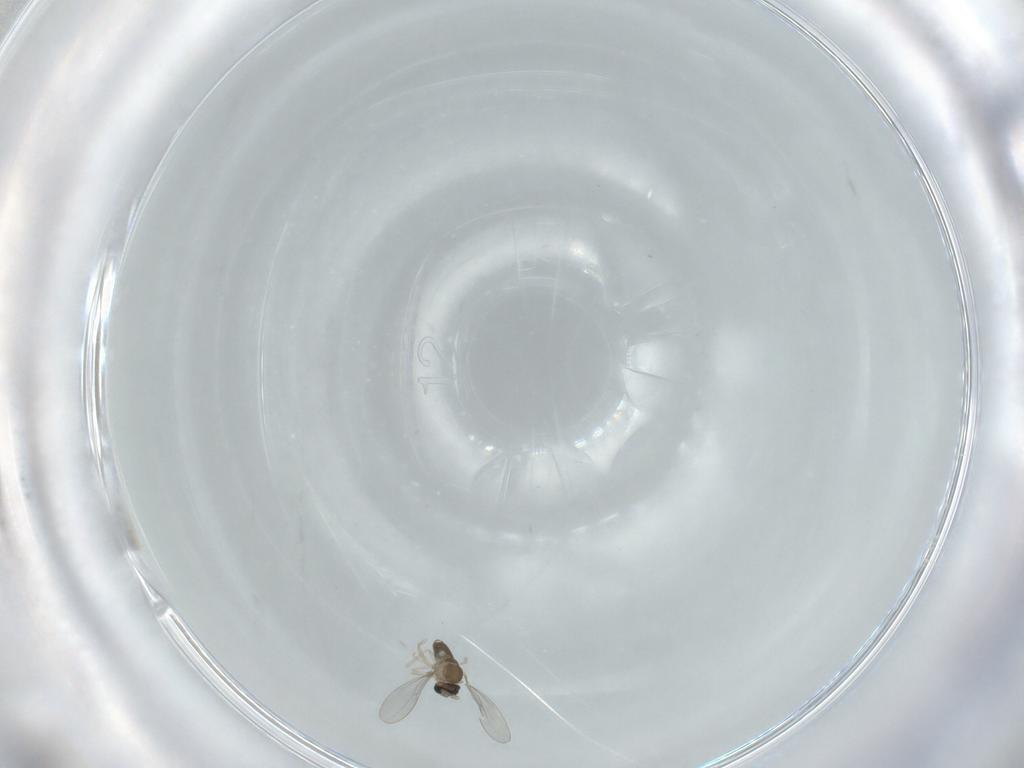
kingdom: Animalia
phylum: Arthropoda
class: Insecta
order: Diptera
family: Cecidomyiidae
